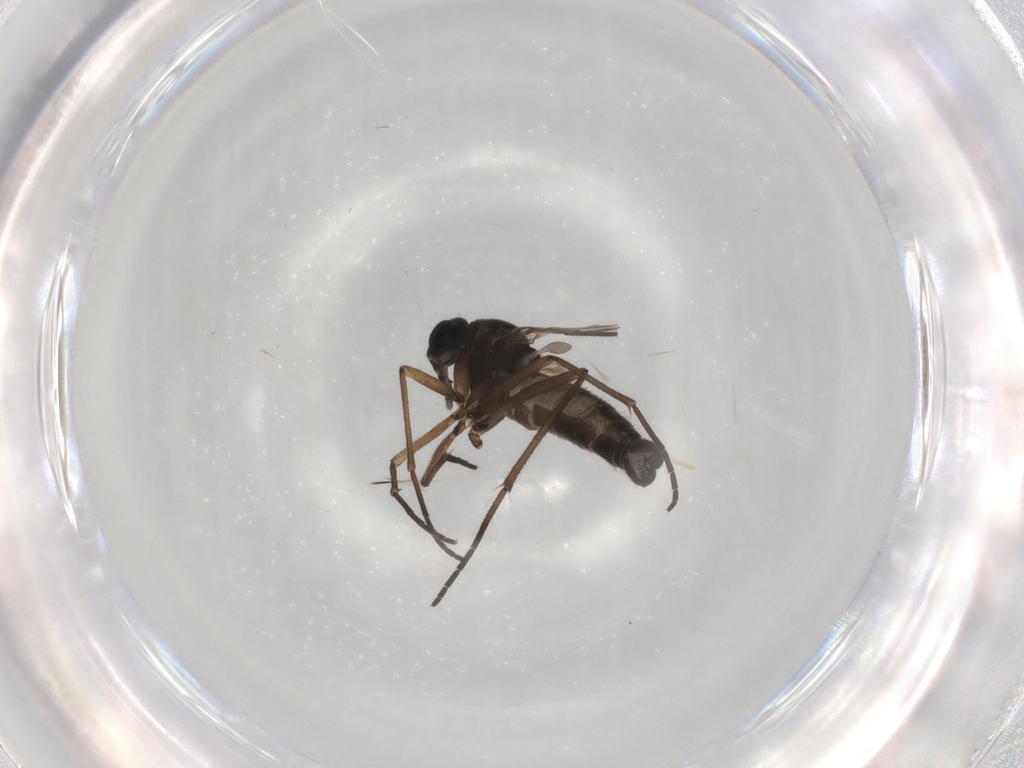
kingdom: Animalia
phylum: Arthropoda
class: Insecta
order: Diptera
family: Sciaridae
